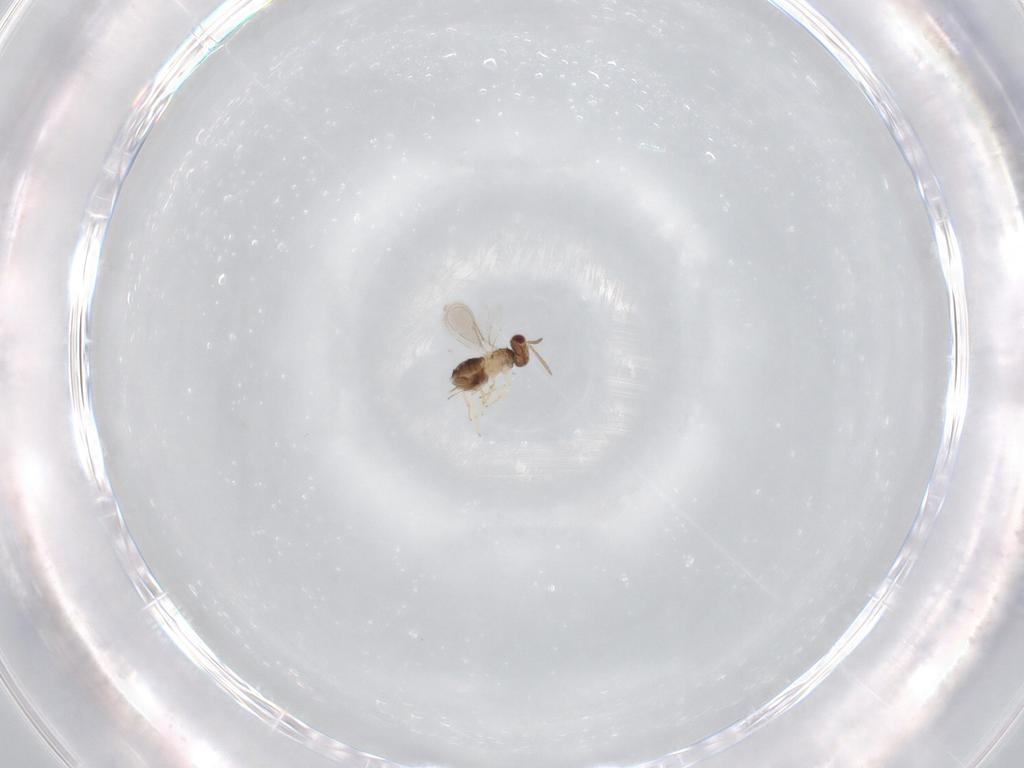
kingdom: Animalia
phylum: Arthropoda
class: Insecta
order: Hymenoptera
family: Aphelinidae
